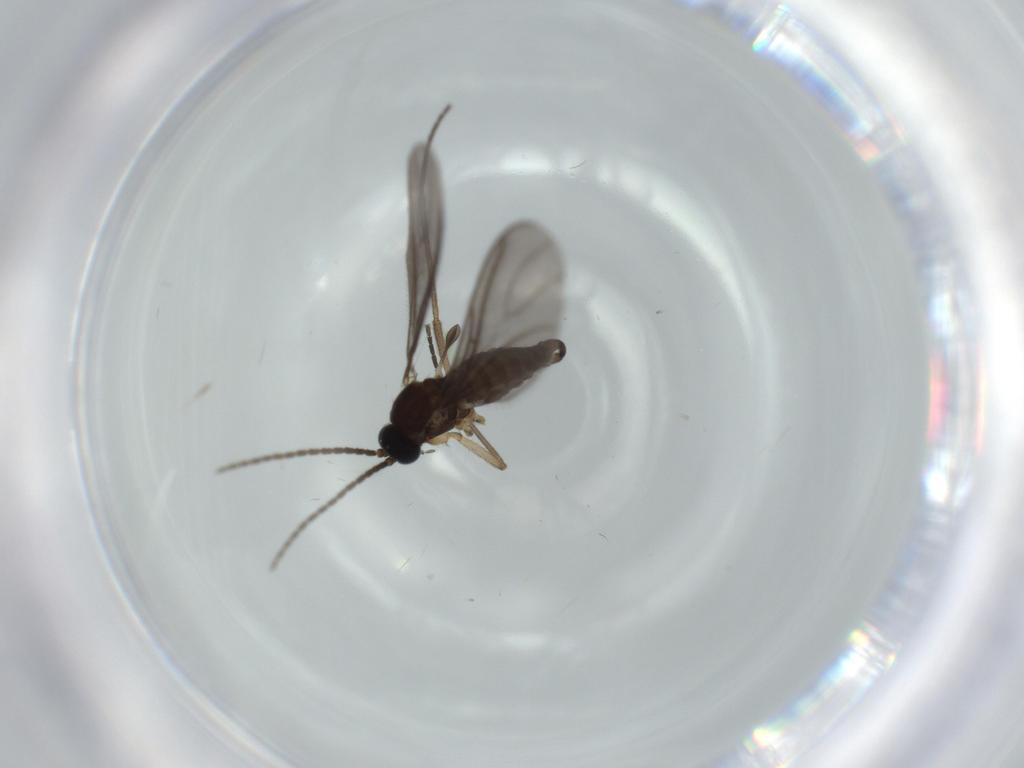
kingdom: Animalia
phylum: Arthropoda
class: Insecta
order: Diptera
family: Sciaridae
